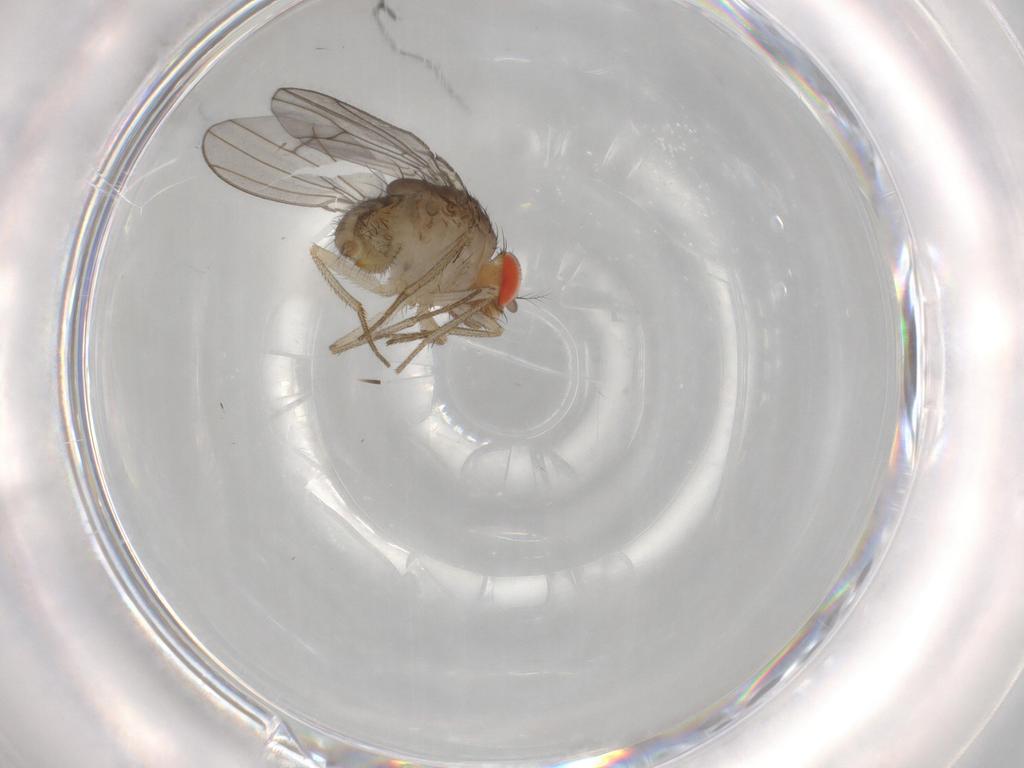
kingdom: Animalia
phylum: Arthropoda
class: Insecta
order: Diptera
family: Drosophilidae
